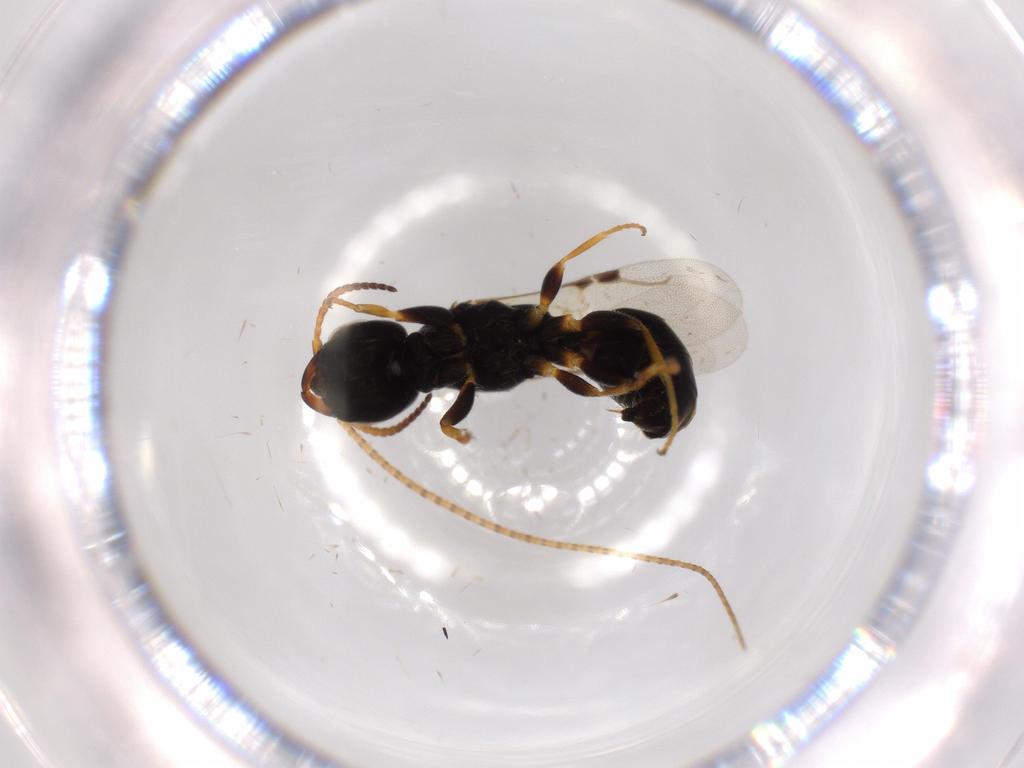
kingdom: Animalia
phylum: Arthropoda
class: Insecta
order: Hymenoptera
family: Bethylidae
